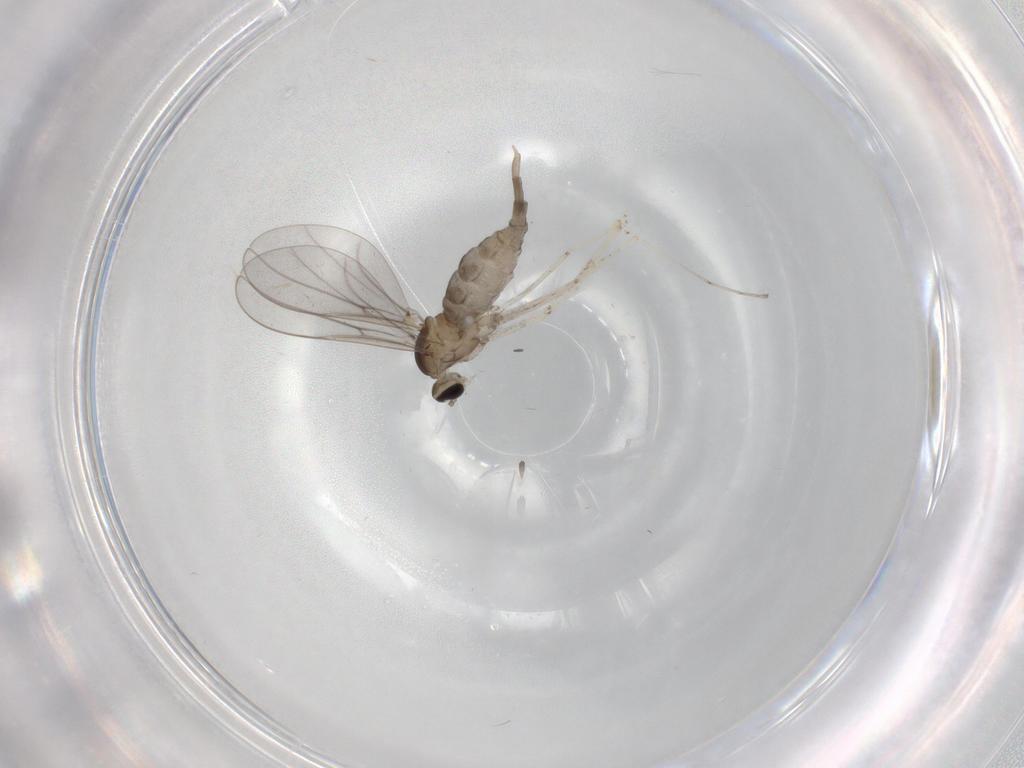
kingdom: Animalia
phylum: Arthropoda
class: Insecta
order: Diptera
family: Cecidomyiidae
